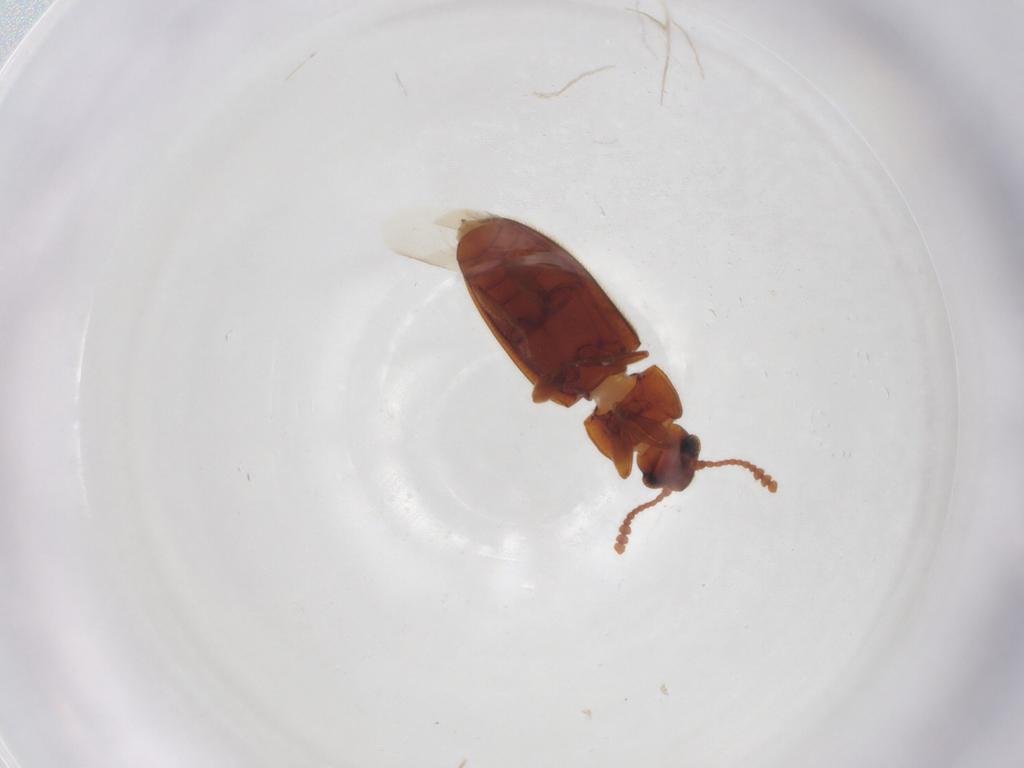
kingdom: Animalia
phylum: Arthropoda
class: Insecta
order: Coleoptera
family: Erotylidae
